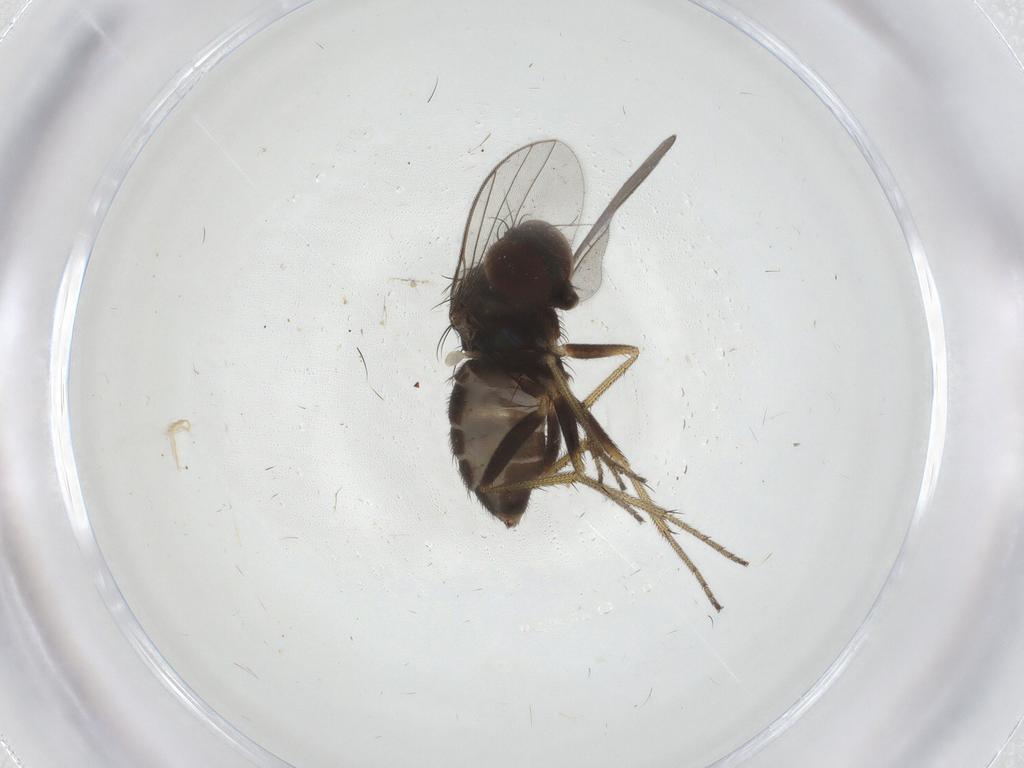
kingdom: Animalia
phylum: Arthropoda
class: Insecta
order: Diptera
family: Dolichopodidae
